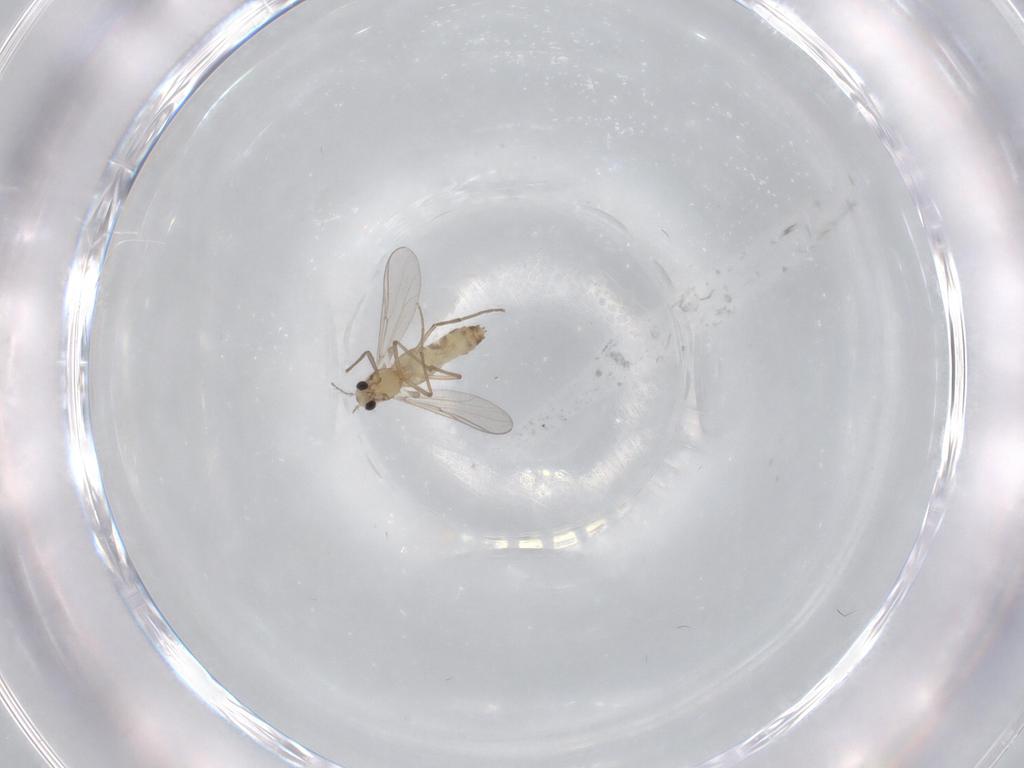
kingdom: Animalia
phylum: Arthropoda
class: Insecta
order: Diptera
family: Chironomidae
